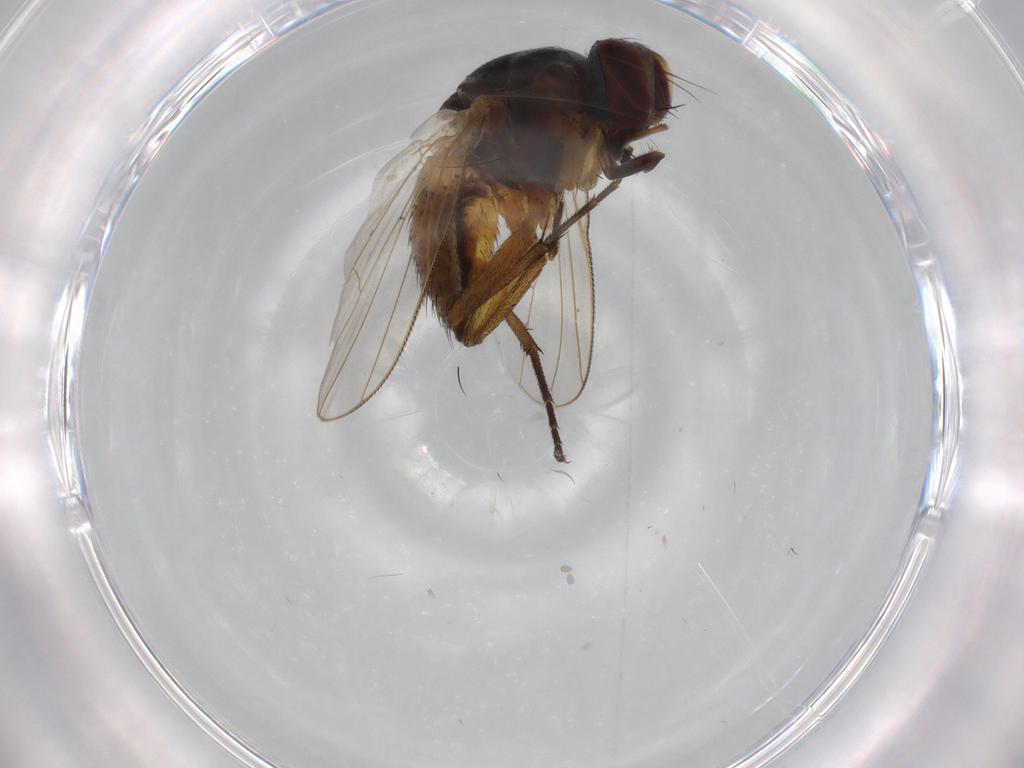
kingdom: Animalia
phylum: Arthropoda
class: Insecta
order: Diptera
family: Muscidae
